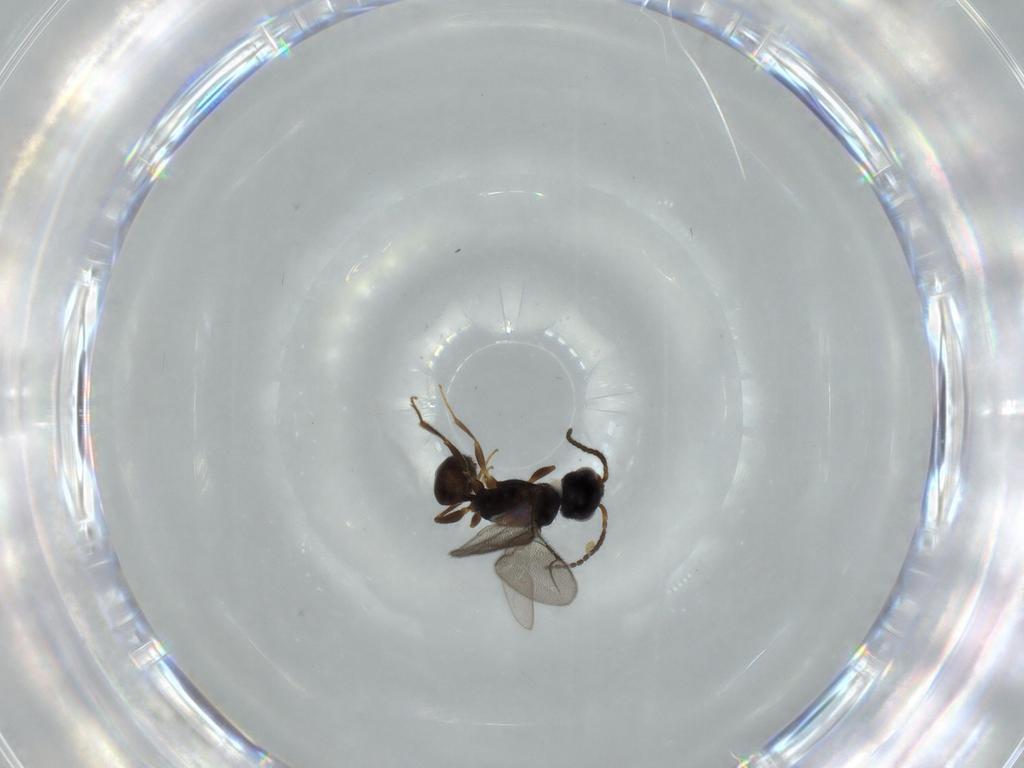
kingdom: Animalia
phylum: Arthropoda
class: Insecta
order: Hymenoptera
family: Bethylidae
